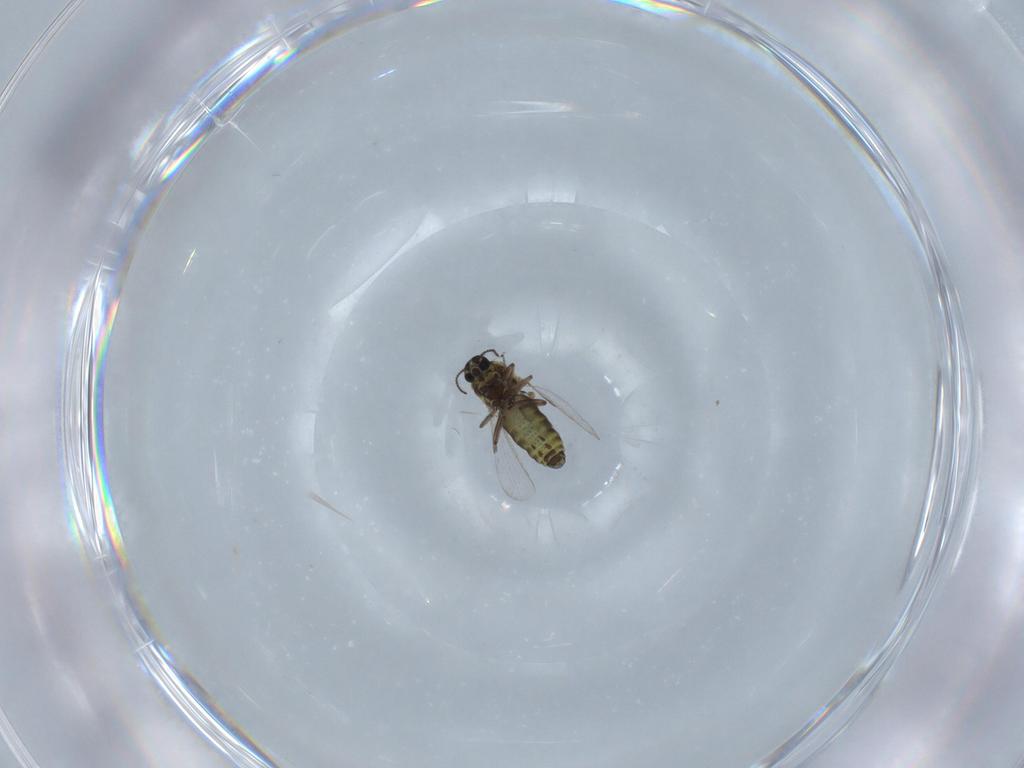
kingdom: Animalia
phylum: Arthropoda
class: Insecta
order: Diptera
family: Ceratopogonidae
